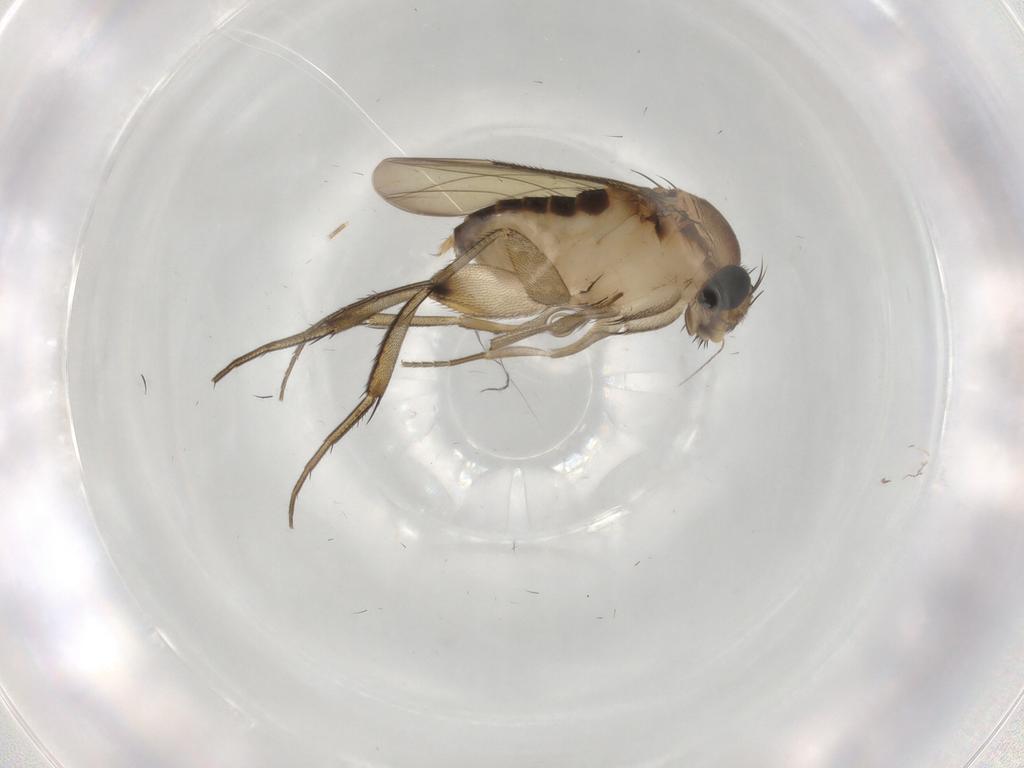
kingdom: Animalia
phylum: Arthropoda
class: Insecta
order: Diptera
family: Phoridae
